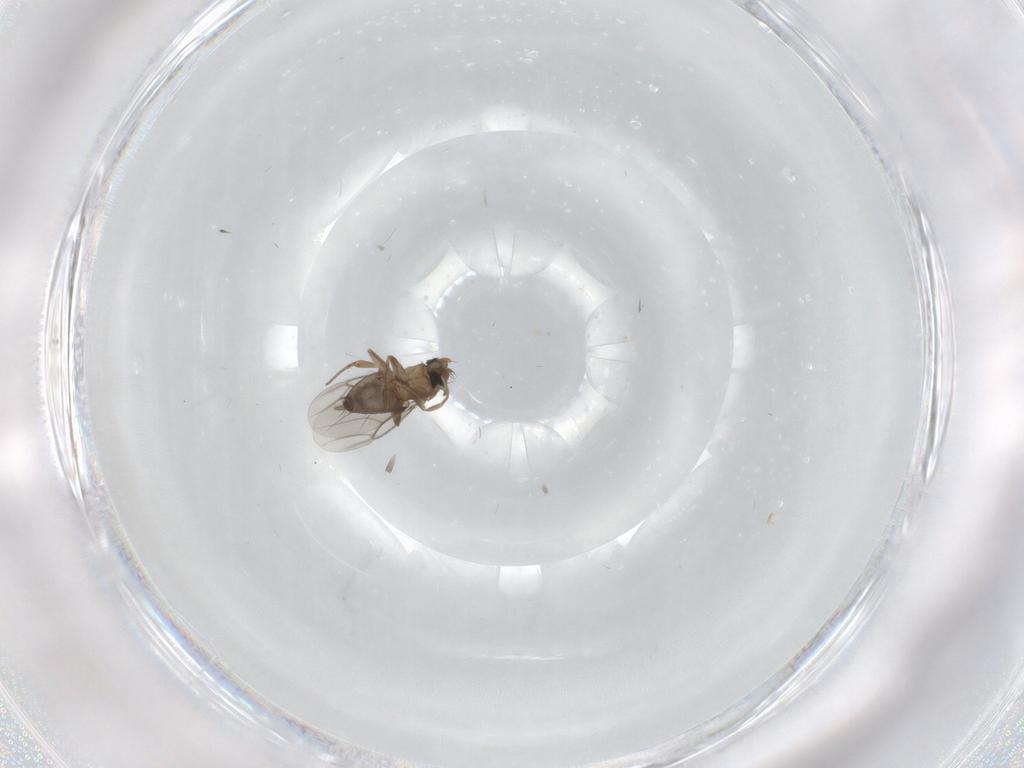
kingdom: Animalia
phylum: Arthropoda
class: Insecta
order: Diptera
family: Phoridae
